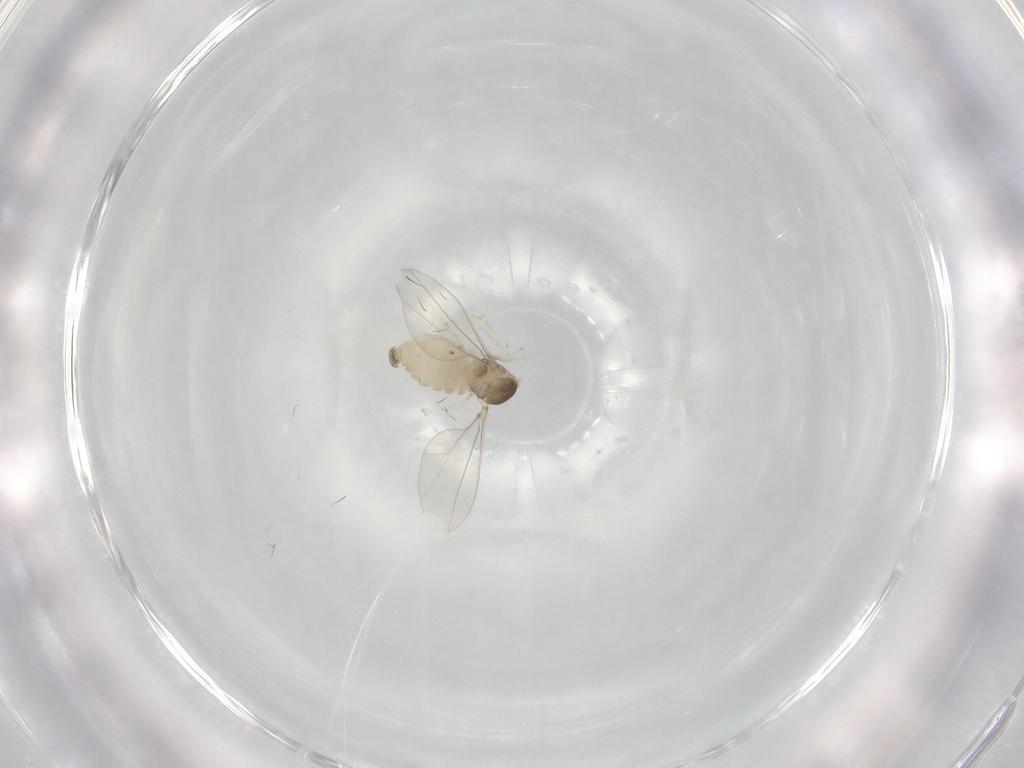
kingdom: Animalia
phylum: Arthropoda
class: Insecta
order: Diptera
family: Cecidomyiidae
